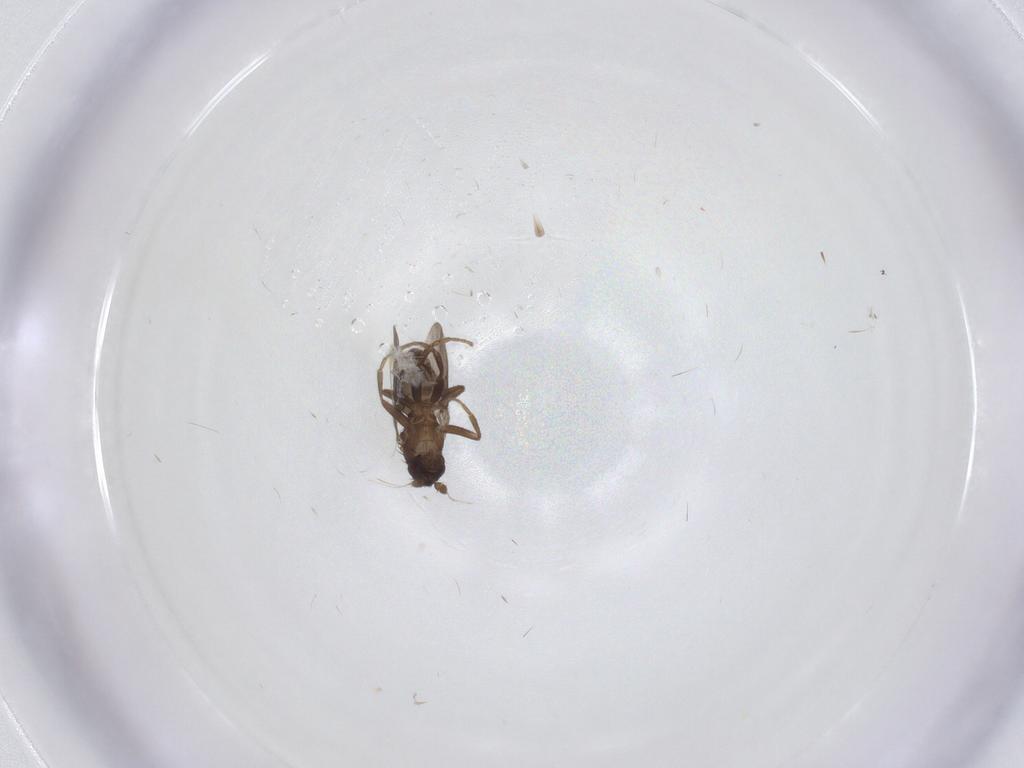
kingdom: Animalia
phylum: Arthropoda
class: Insecta
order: Diptera
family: Sphaeroceridae
